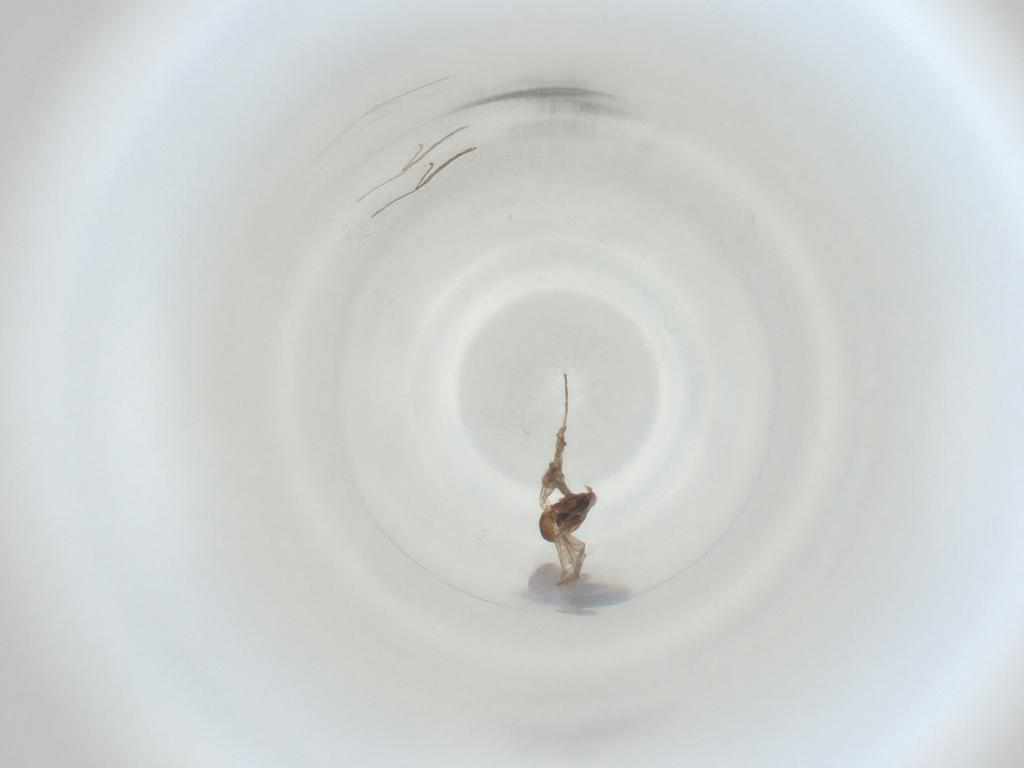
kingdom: Animalia
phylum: Arthropoda
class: Insecta
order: Diptera
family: Cecidomyiidae
